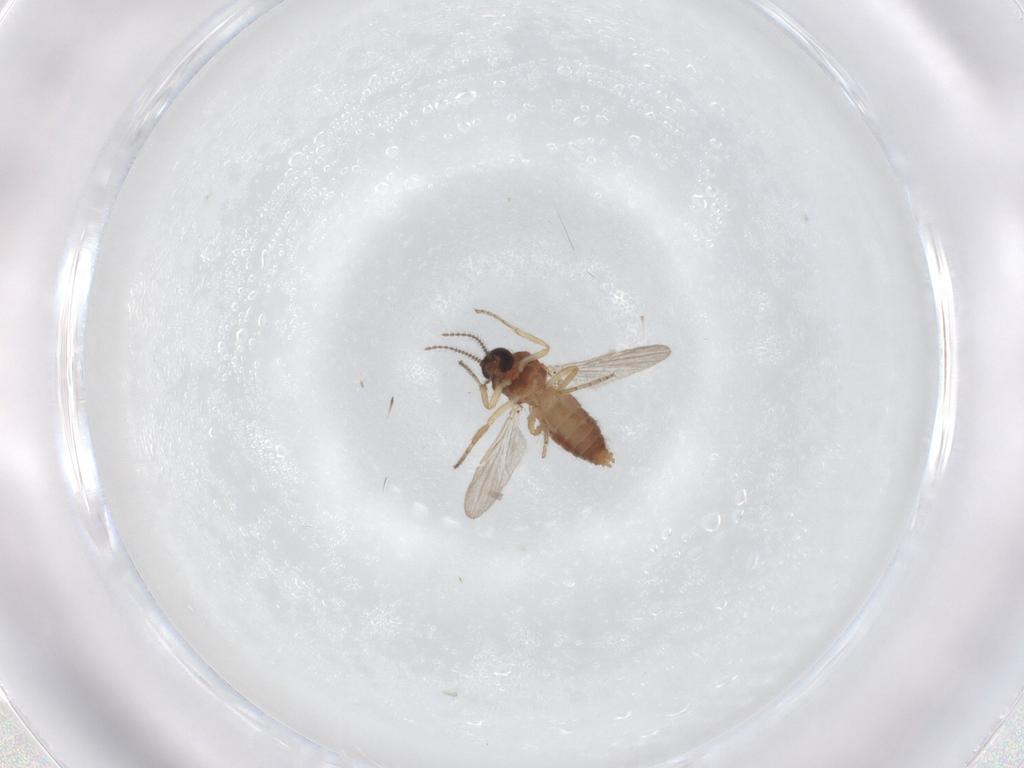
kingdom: Animalia
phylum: Arthropoda
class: Insecta
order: Diptera
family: Ceratopogonidae
